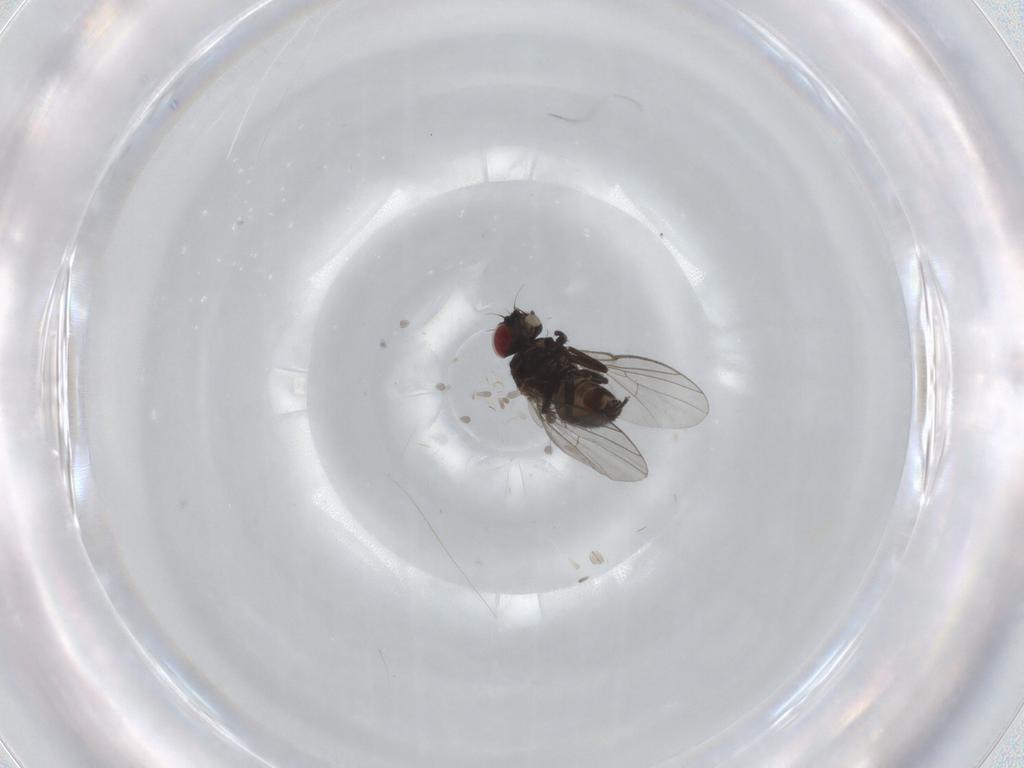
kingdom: Animalia
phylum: Arthropoda
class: Insecta
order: Diptera
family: Agromyzidae
